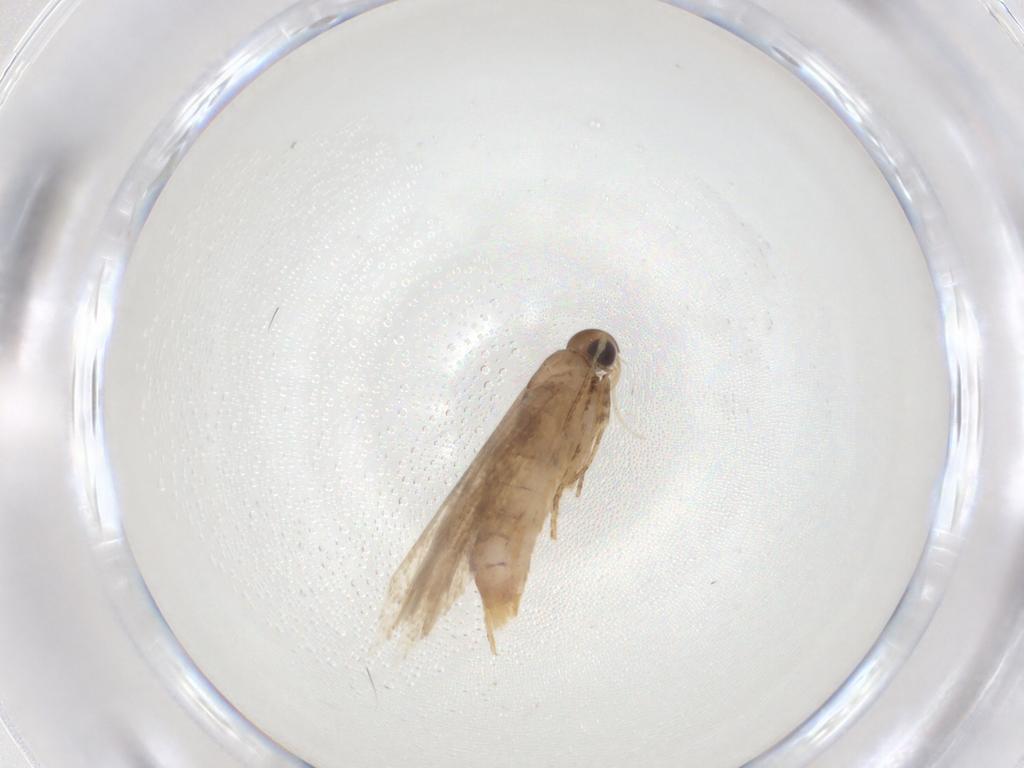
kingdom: Animalia
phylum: Arthropoda
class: Insecta
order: Lepidoptera
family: Gelechiidae
